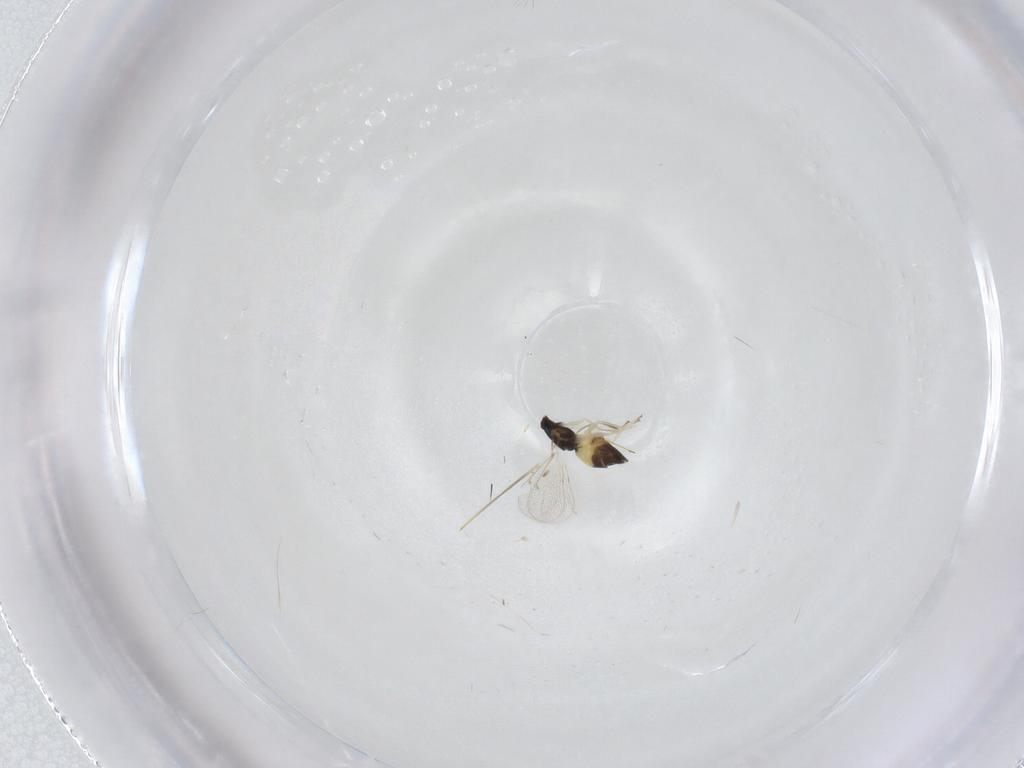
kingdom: Animalia
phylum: Arthropoda
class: Insecta
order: Hymenoptera
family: Eulophidae
